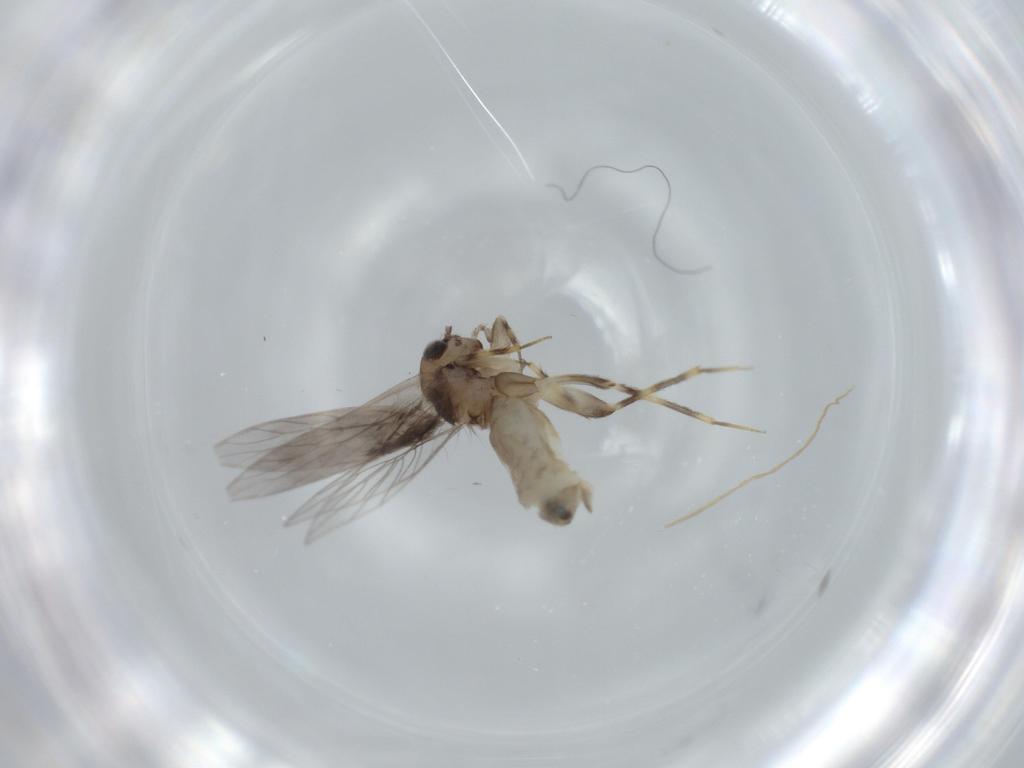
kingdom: Animalia
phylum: Arthropoda
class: Insecta
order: Psocodea
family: Lepidopsocidae
